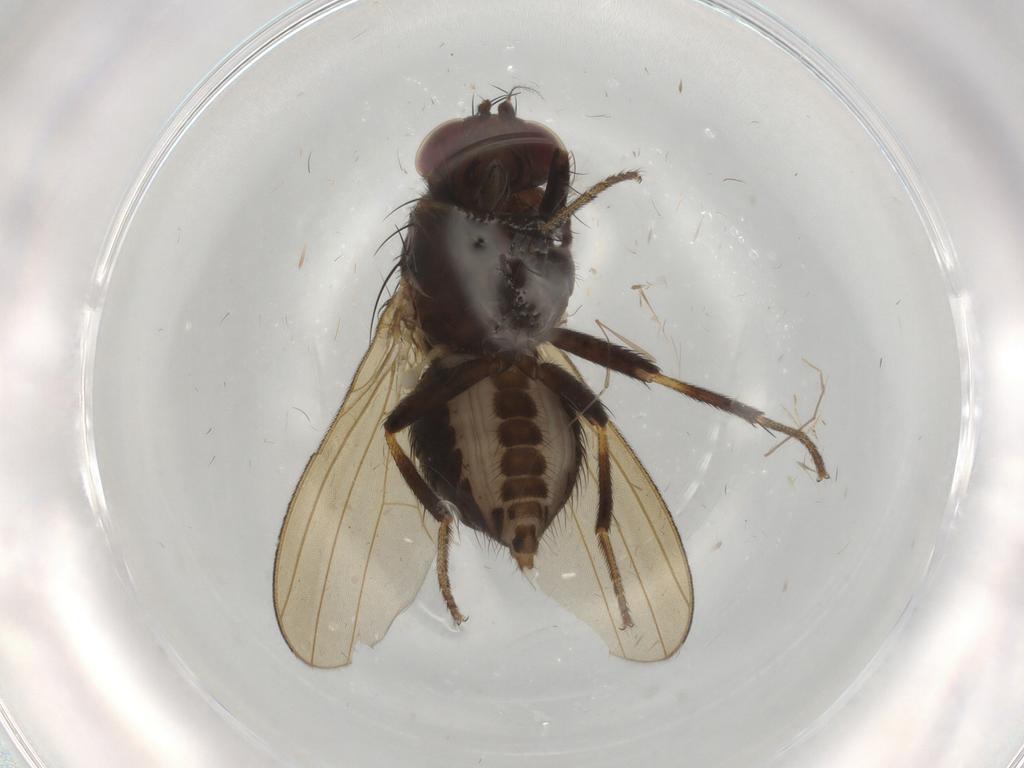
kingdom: Animalia
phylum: Arthropoda
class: Insecta
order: Diptera
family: Sciaridae
